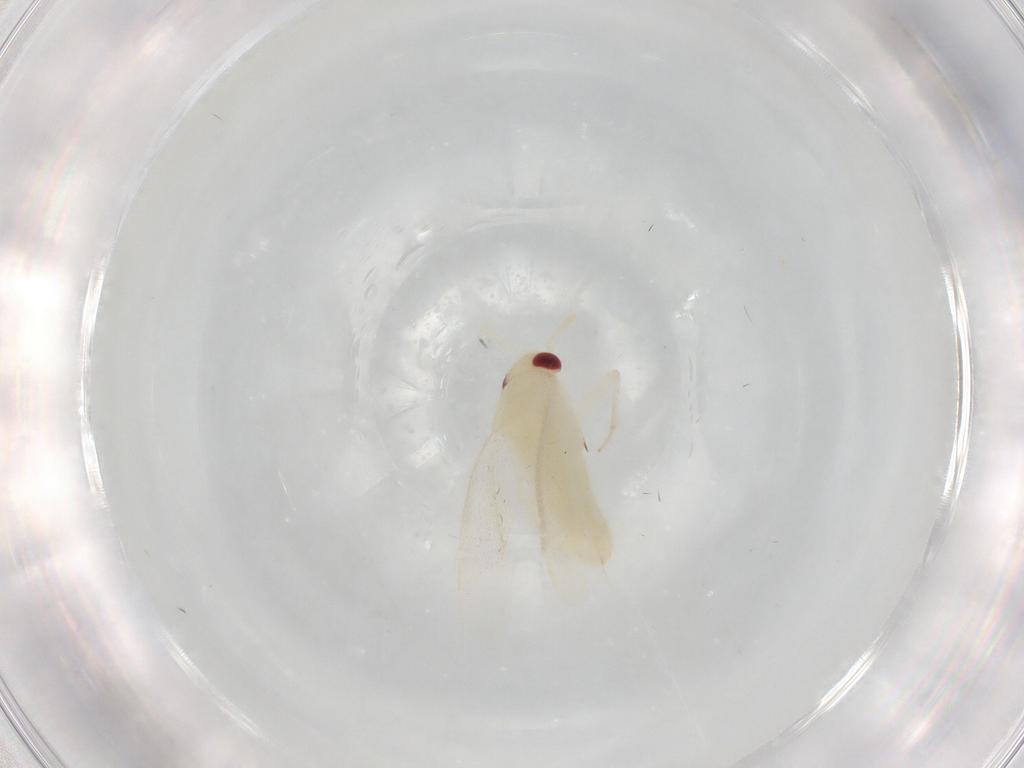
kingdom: Animalia
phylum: Arthropoda
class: Insecta
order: Hemiptera
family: Miridae
